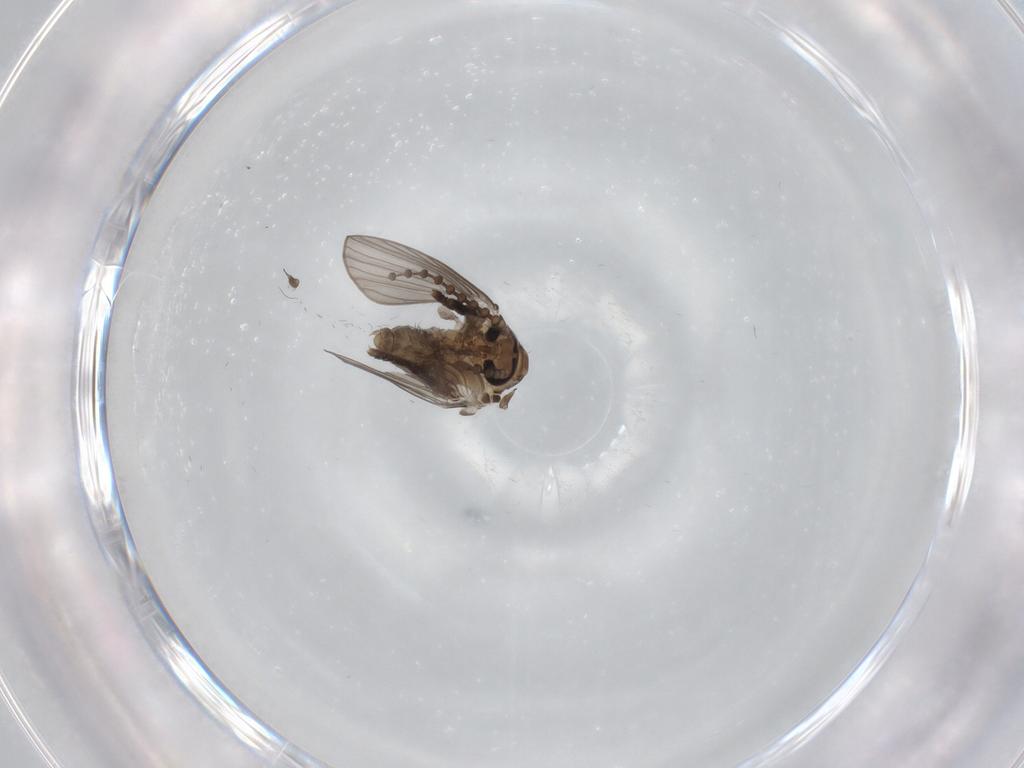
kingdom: Animalia
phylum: Arthropoda
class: Insecta
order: Diptera
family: Psychodidae
